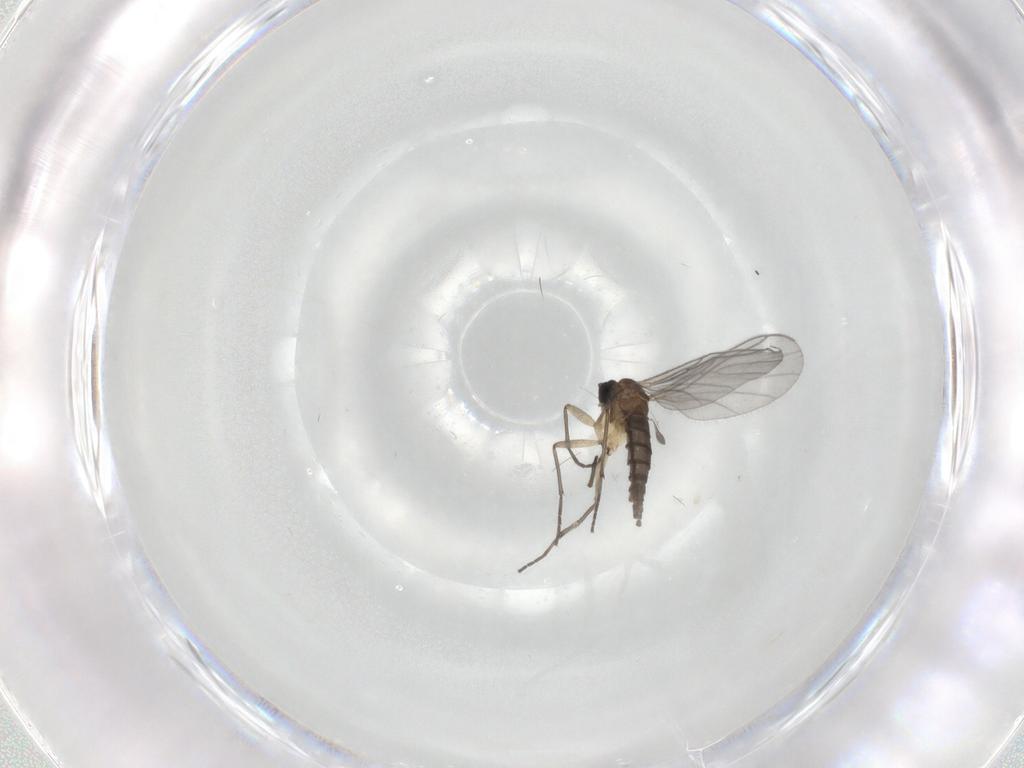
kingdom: Animalia
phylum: Arthropoda
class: Insecta
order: Diptera
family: Sciaridae
